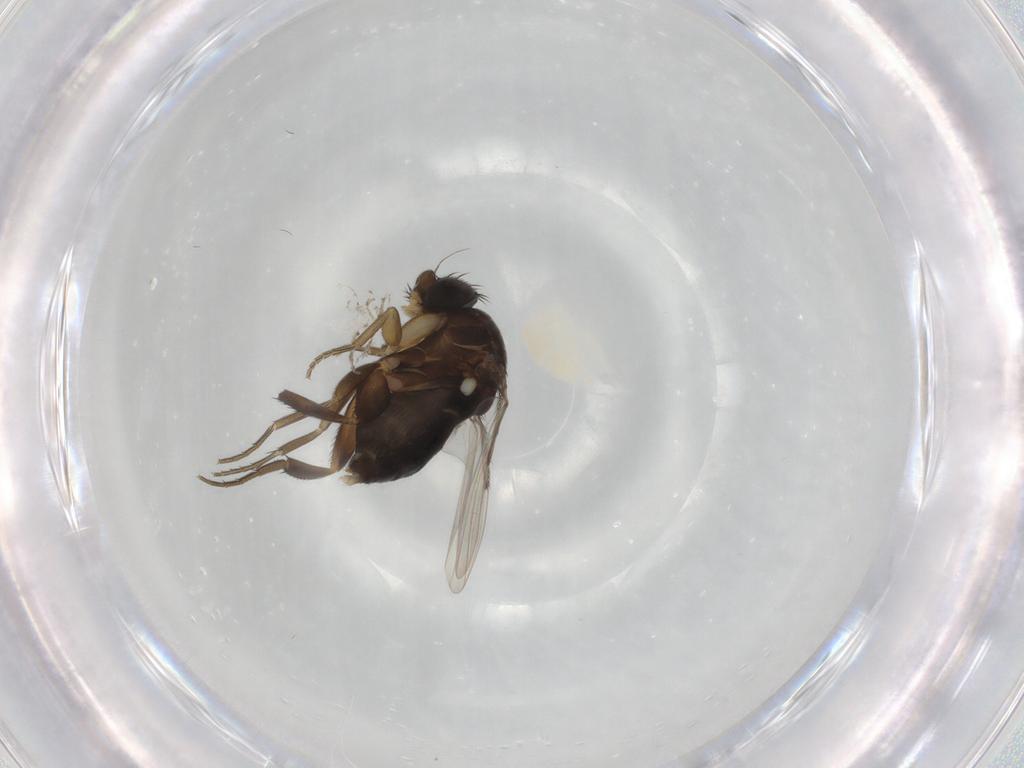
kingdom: Animalia
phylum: Arthropoda
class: Insecta
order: Diptera
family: Phoridae
